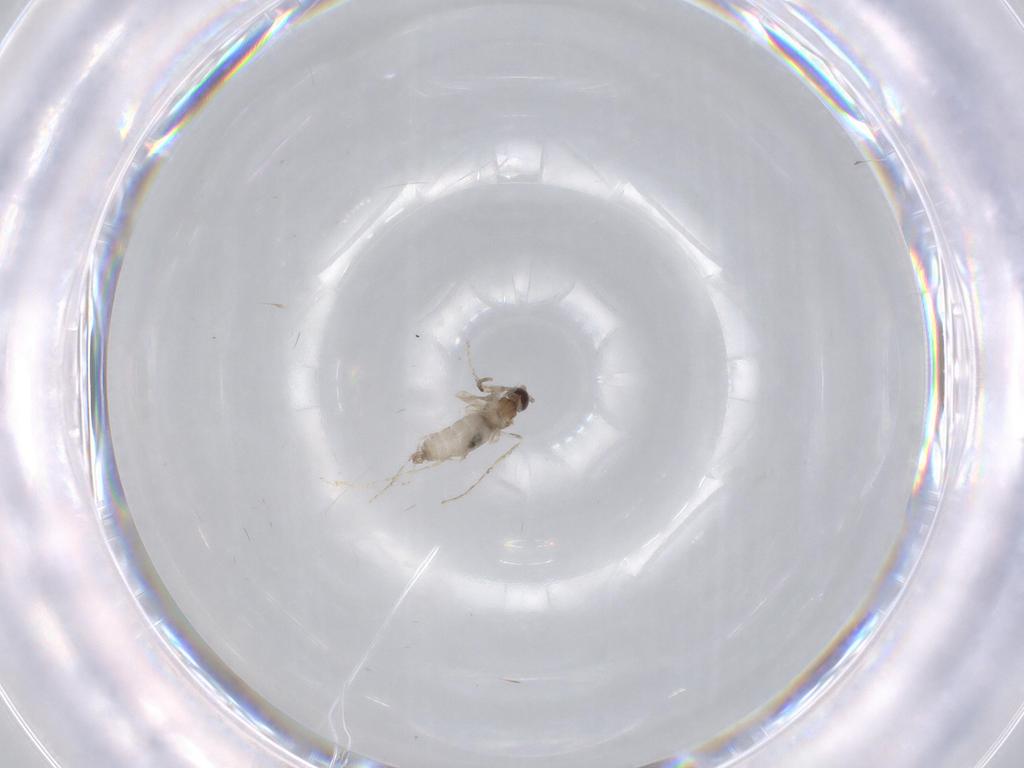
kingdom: Animalia
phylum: Arthropoda
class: Insecta
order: Diptera
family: Cecidomyiidae
